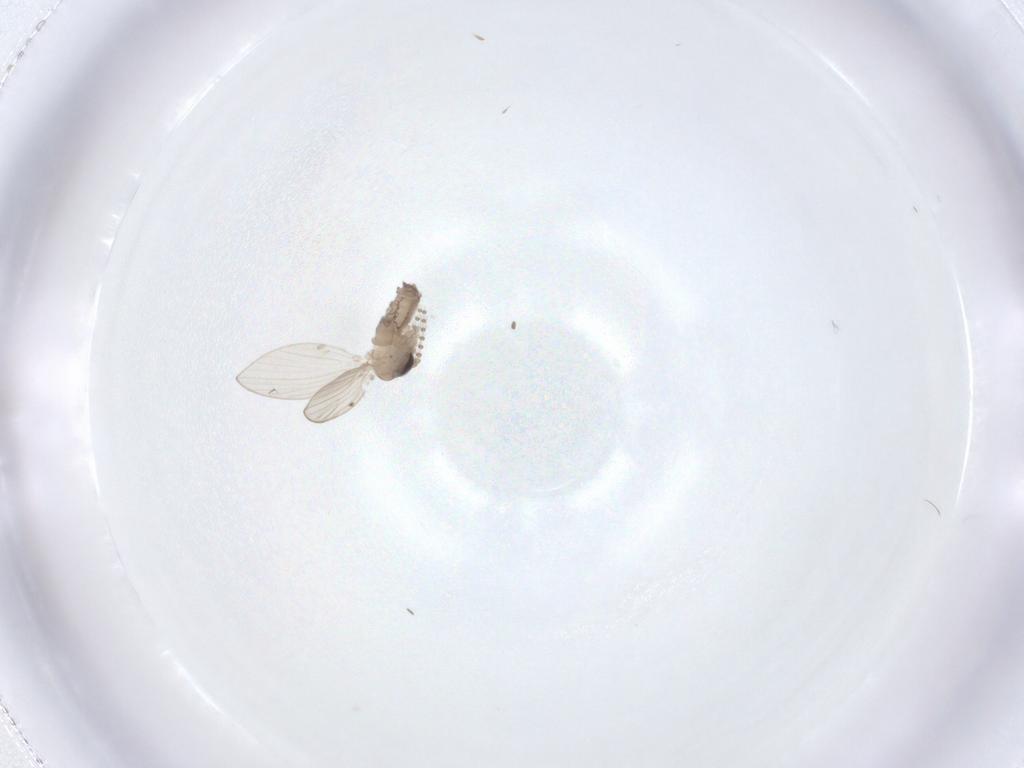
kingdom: Animalia
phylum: Arthropoda
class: Insecta
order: Diptera
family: Psychodidae
